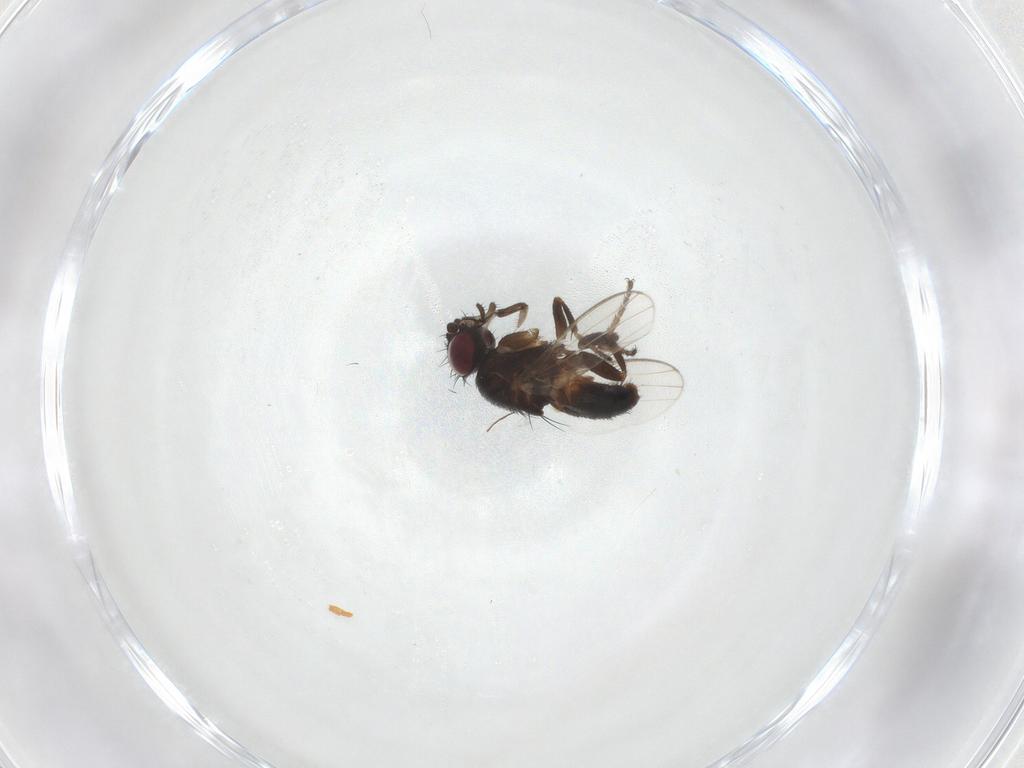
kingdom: Animalia
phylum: Arthropoda
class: Insecta
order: Diptera
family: Milichiidae
